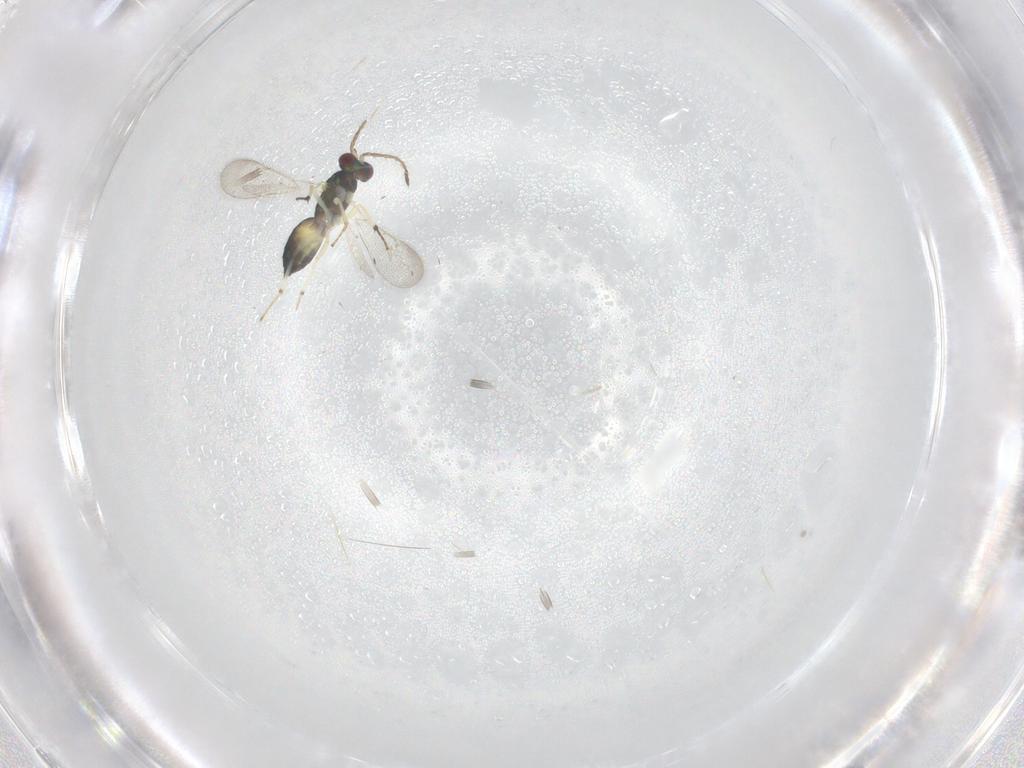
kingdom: Animalia
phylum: Arthropoda
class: Insecta
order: Hymenoptera
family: Eulophidae
